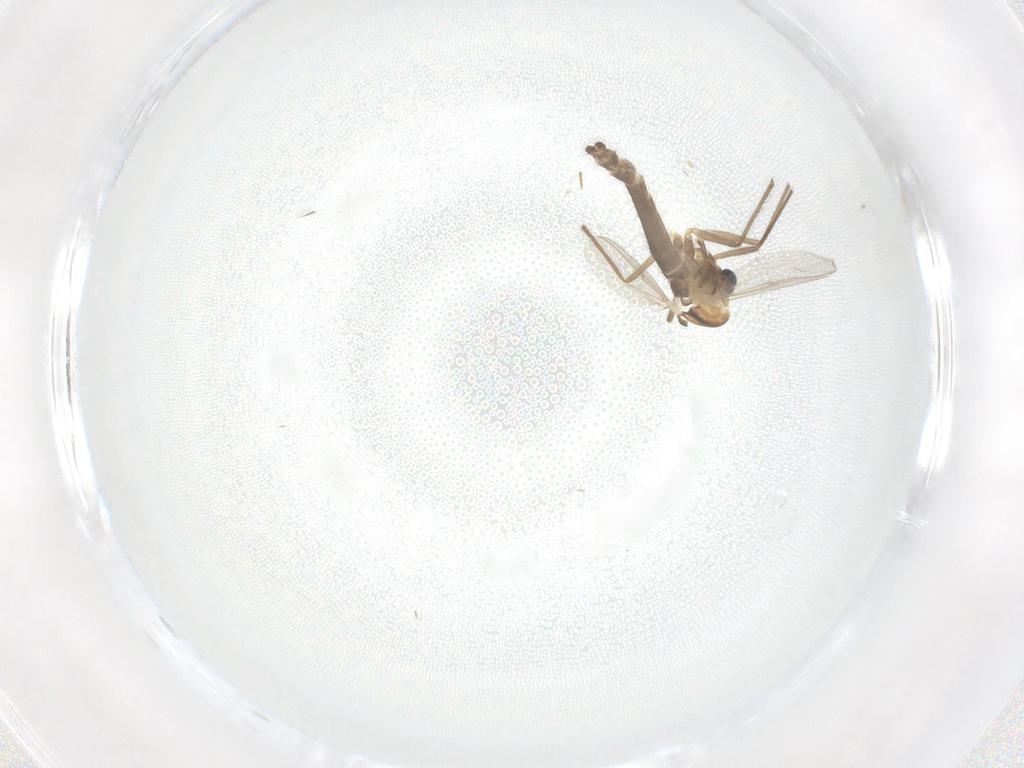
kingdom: Animalia
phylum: Arthropoda
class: Insecta
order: Diptera
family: Chironomidae
